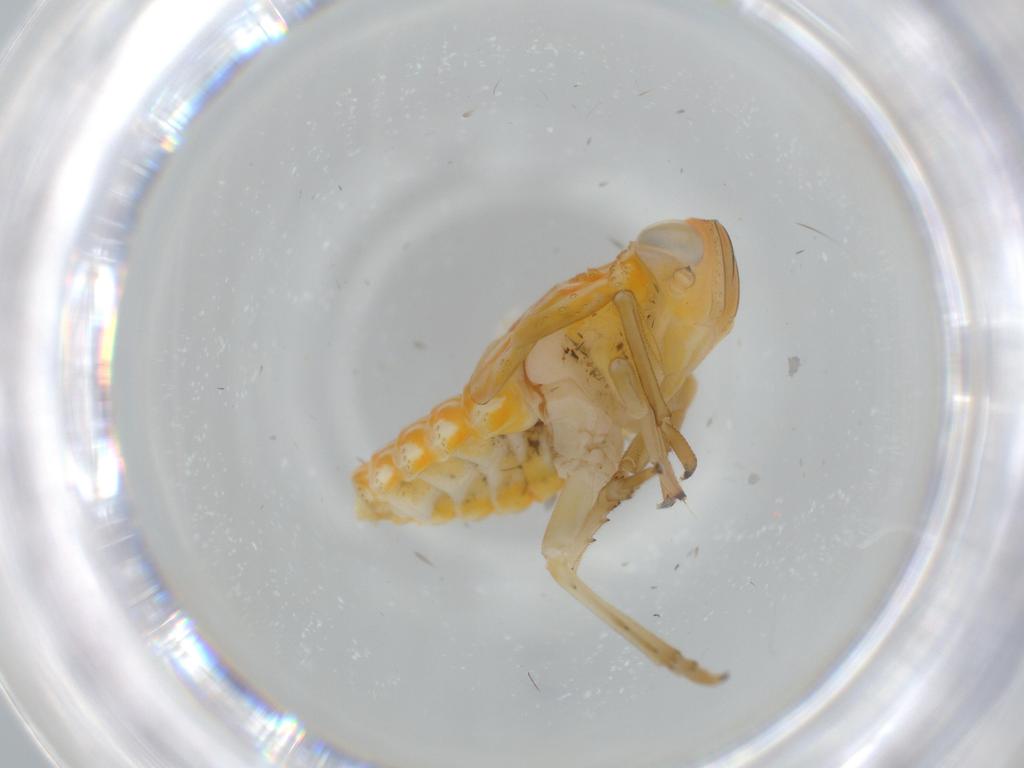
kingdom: Animalia
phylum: Arthropoda
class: Insecta
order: Hemiptera
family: Issidae
